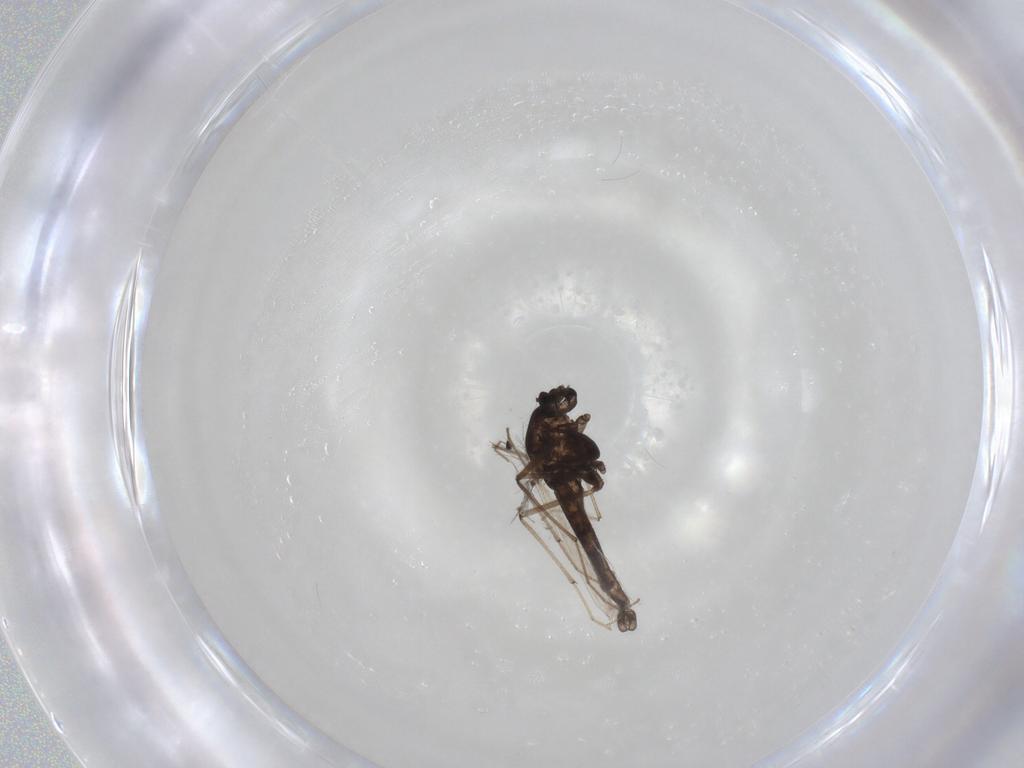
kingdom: Animalia
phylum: Arthropoda
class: Insecta
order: Diptera
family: Chironomidae
